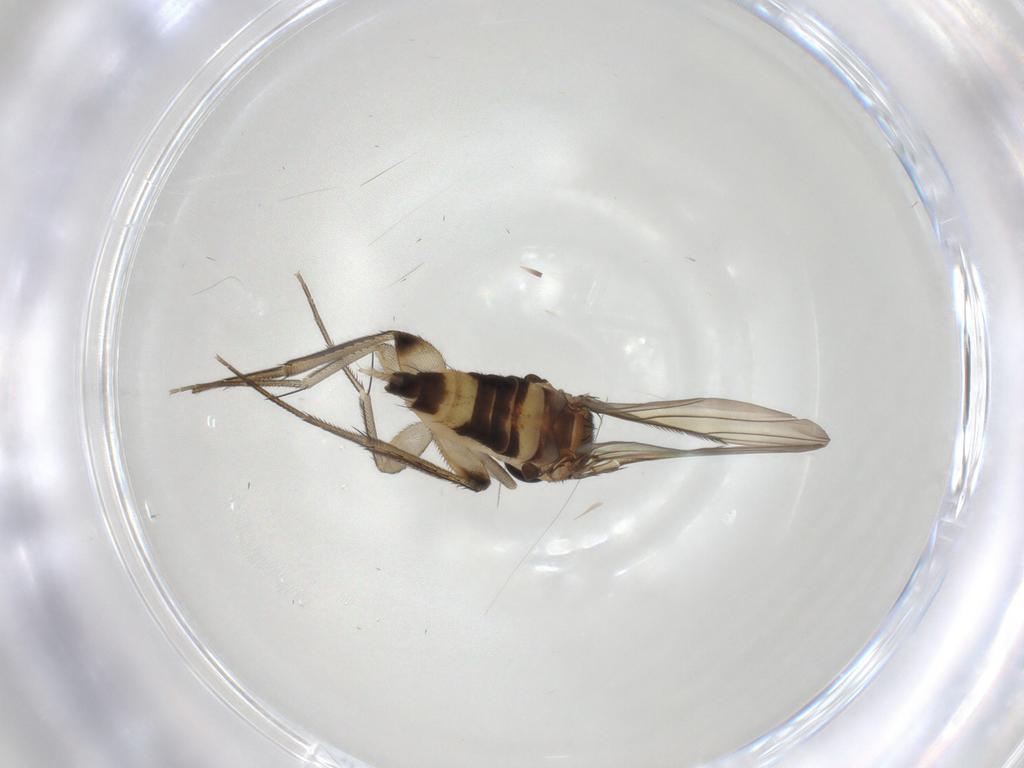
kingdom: Animalia
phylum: Arthropoda
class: Insecta
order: Diptera
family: Phoridae
